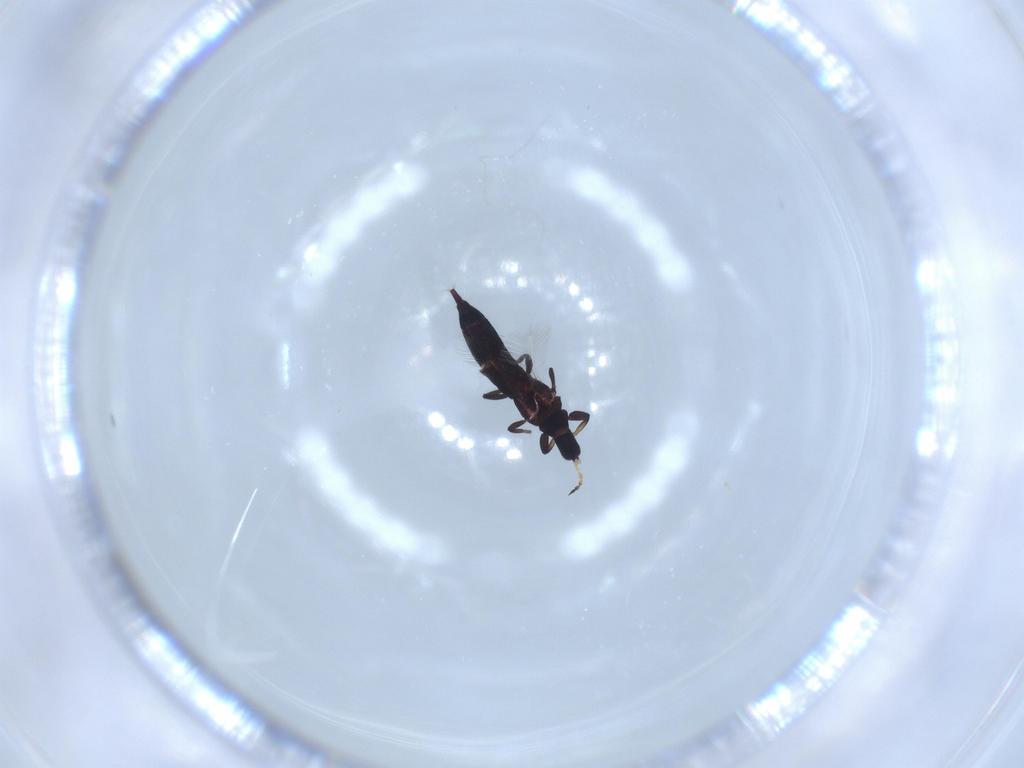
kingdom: Animalia
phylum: Arthropoda
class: Insecta
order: Thysanoptera
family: Phlaeothripidae
